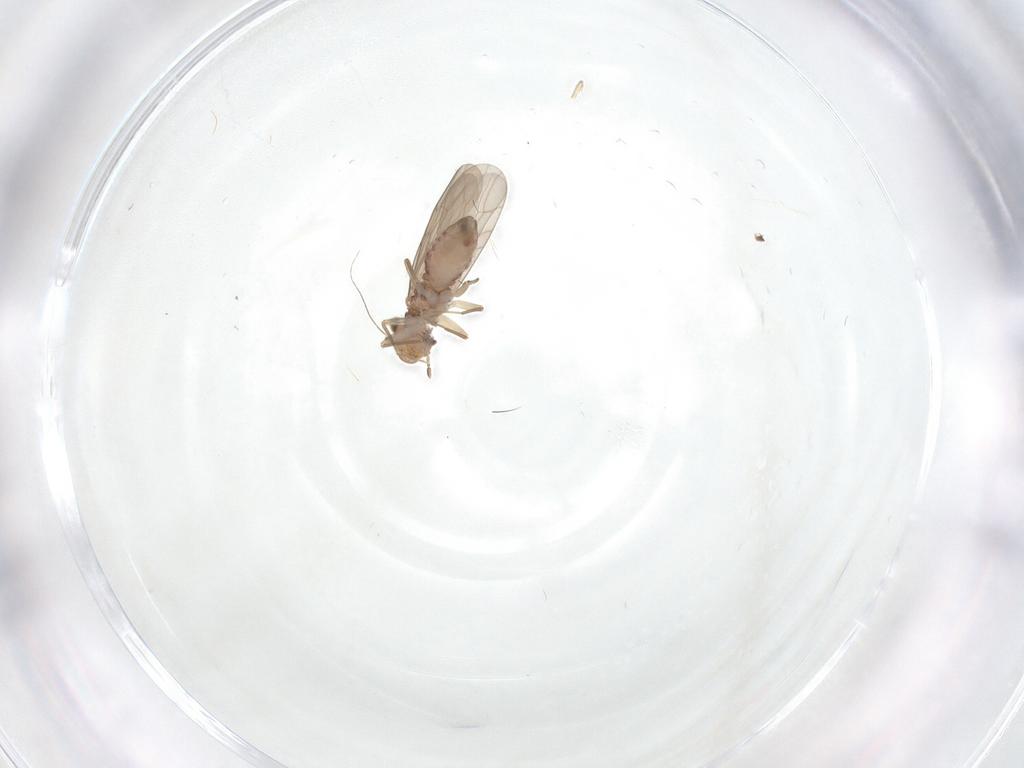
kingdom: Animalia
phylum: Arthropoda
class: Insecta
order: Psocodea
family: Lepidopsocidae
